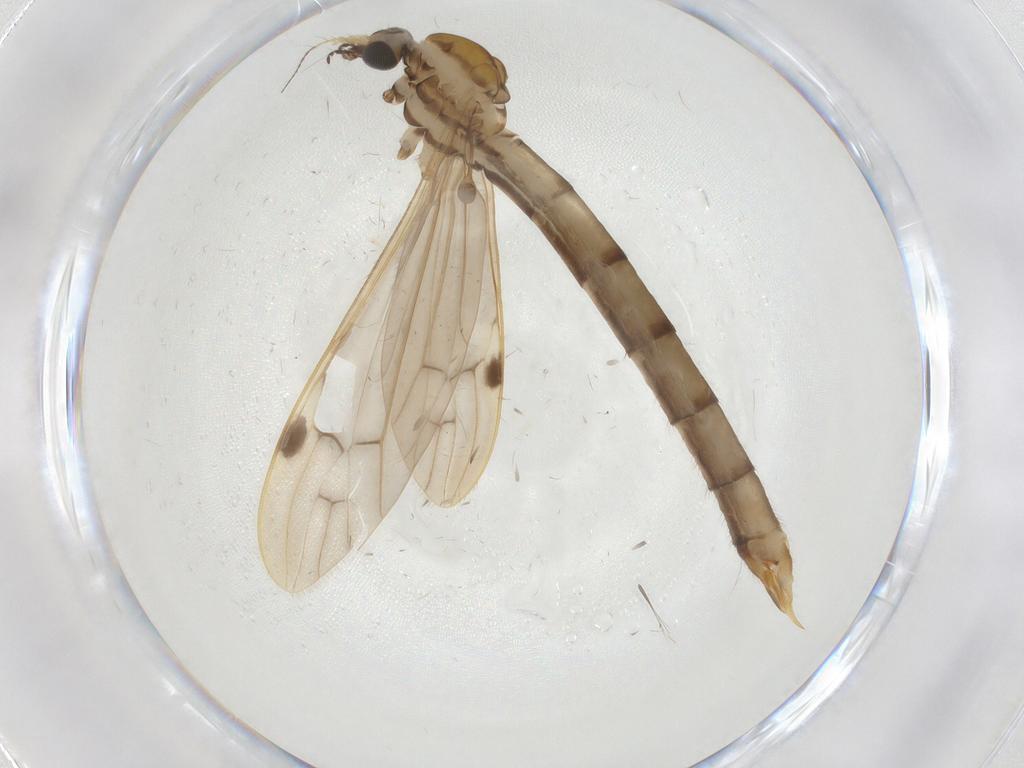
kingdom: Animalia
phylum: Arthropoda
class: Insecta
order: Diptera
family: Limoniidae
